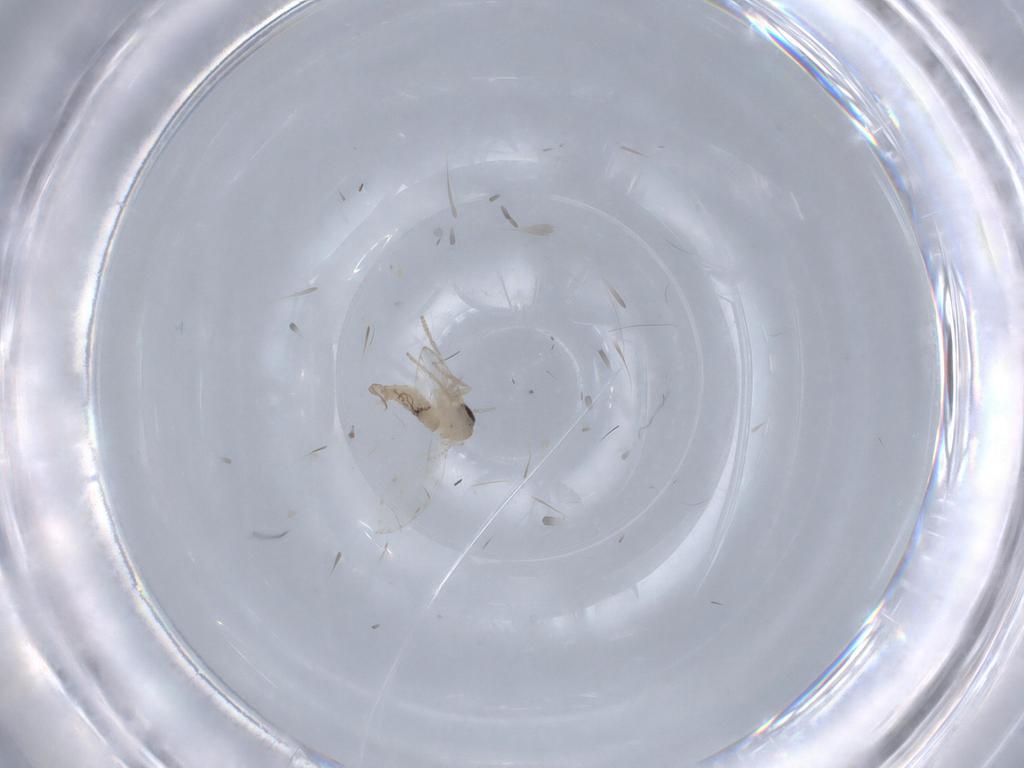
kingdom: Animalia
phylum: Arthropoda
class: Insecta
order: Diptera
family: Psychodidae
